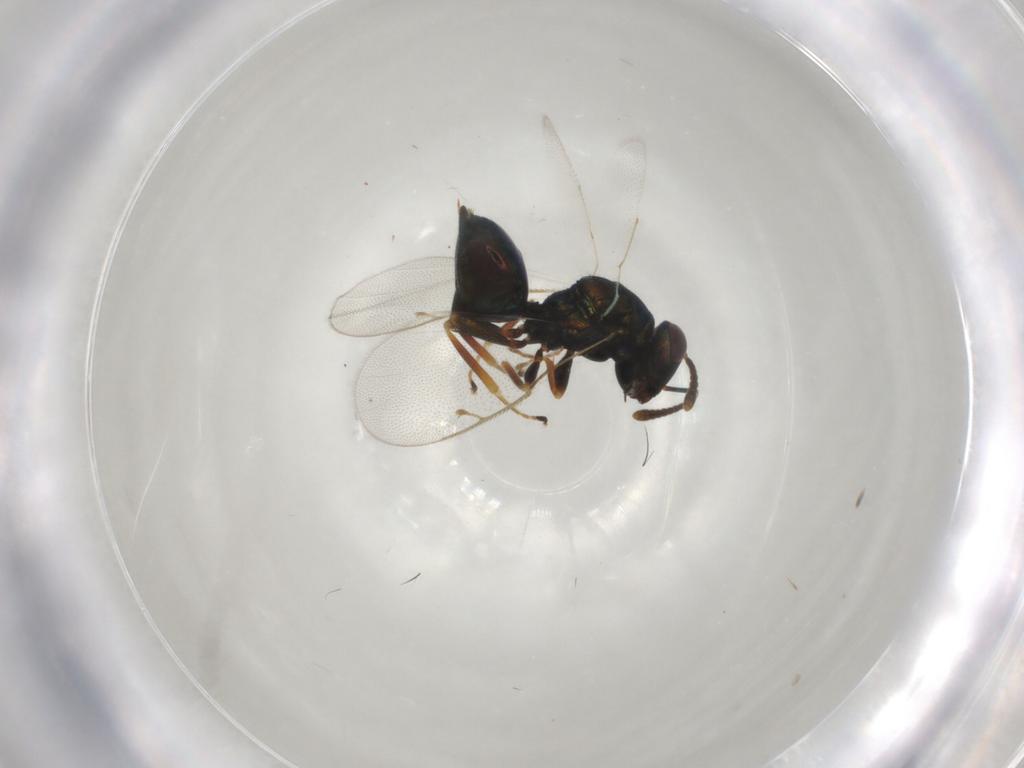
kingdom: Animalia
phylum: Arthropoda
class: Insecta
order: Hymenoptera
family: Pteromalidae
